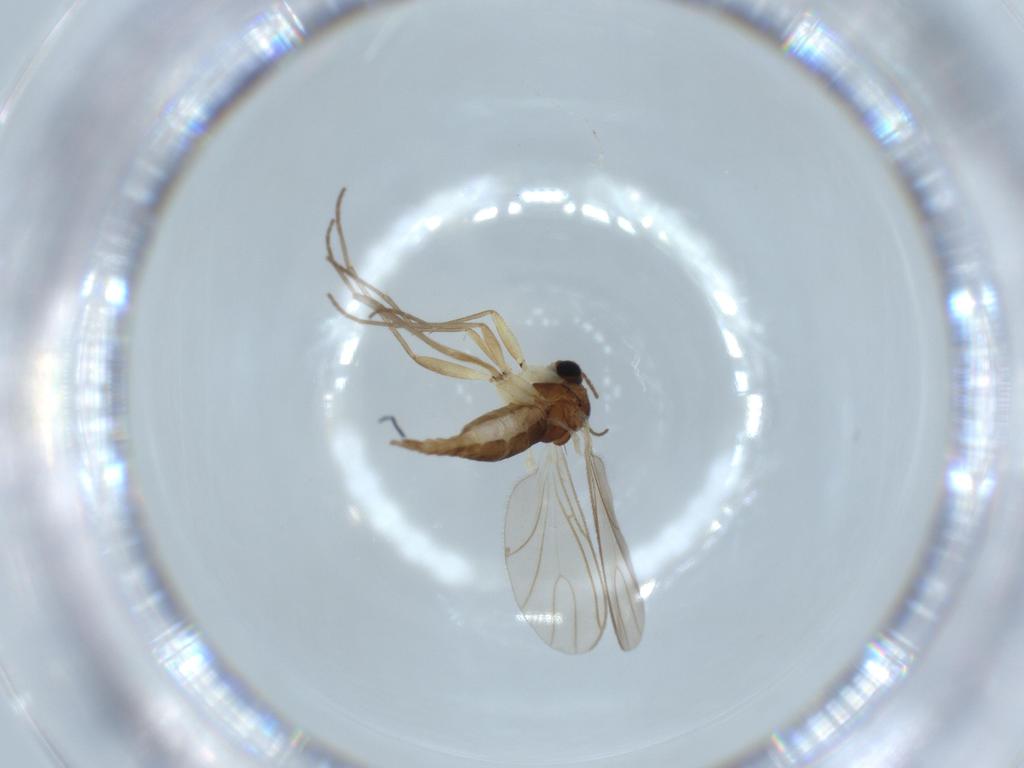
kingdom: Animalia
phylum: Arthropoda
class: Insecta
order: Diptera
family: Sciaridae
